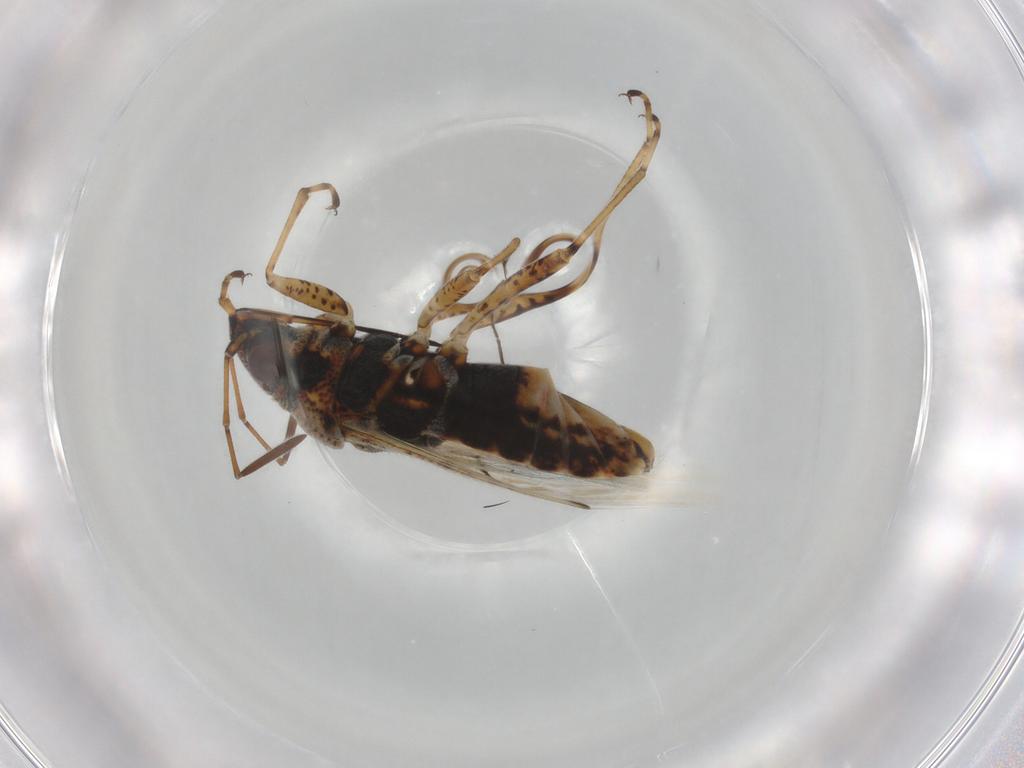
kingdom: Animalia
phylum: Arthropoda
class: Insecta
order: Hemiptera
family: Lygaeidae
